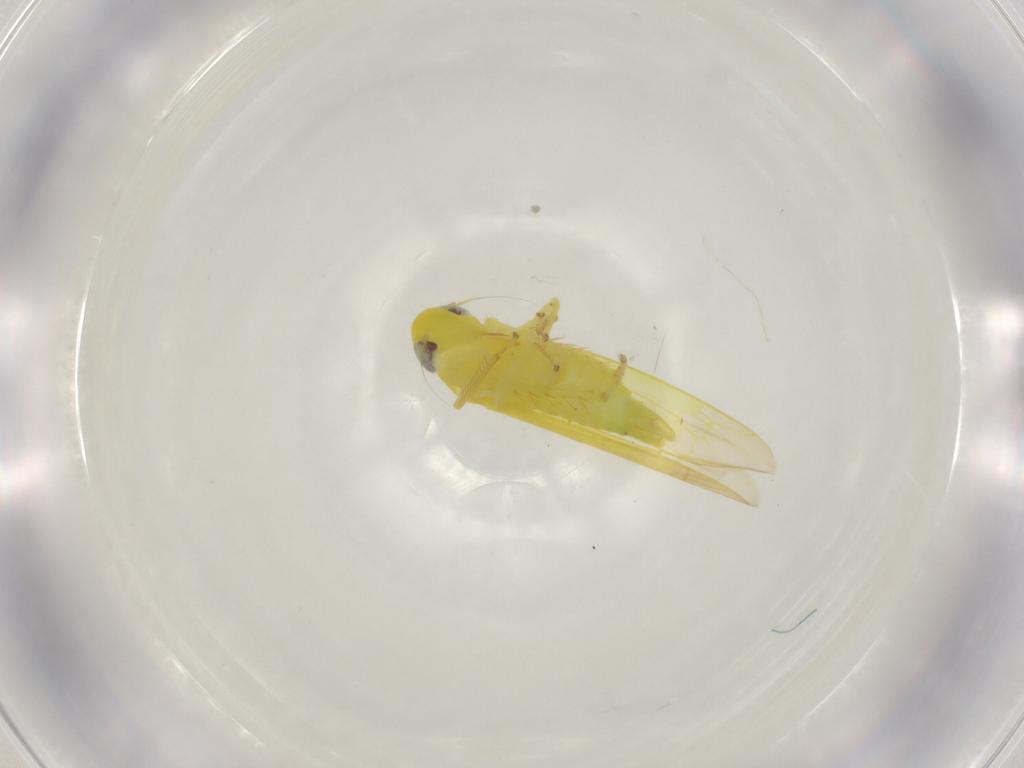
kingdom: Animalia
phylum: Arthropoda
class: Insecta
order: Hemiptera
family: Cicadellidae
